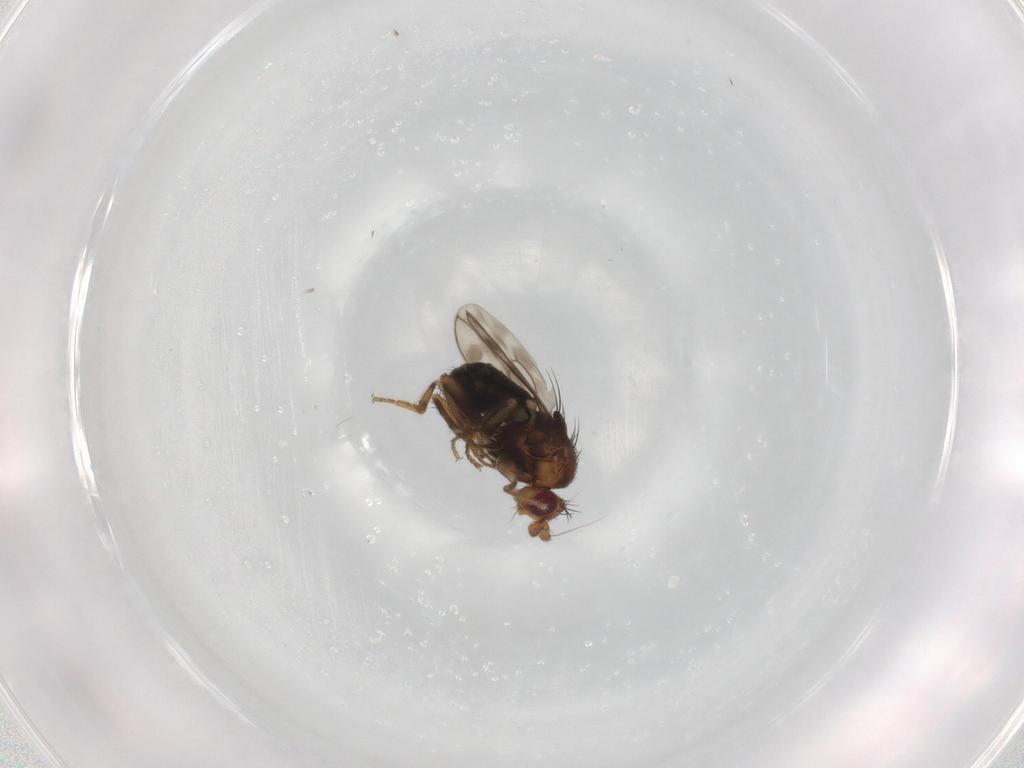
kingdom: Animalia
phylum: Arthropoda
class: Insecta
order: Diptera
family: Sphaeroceridae
